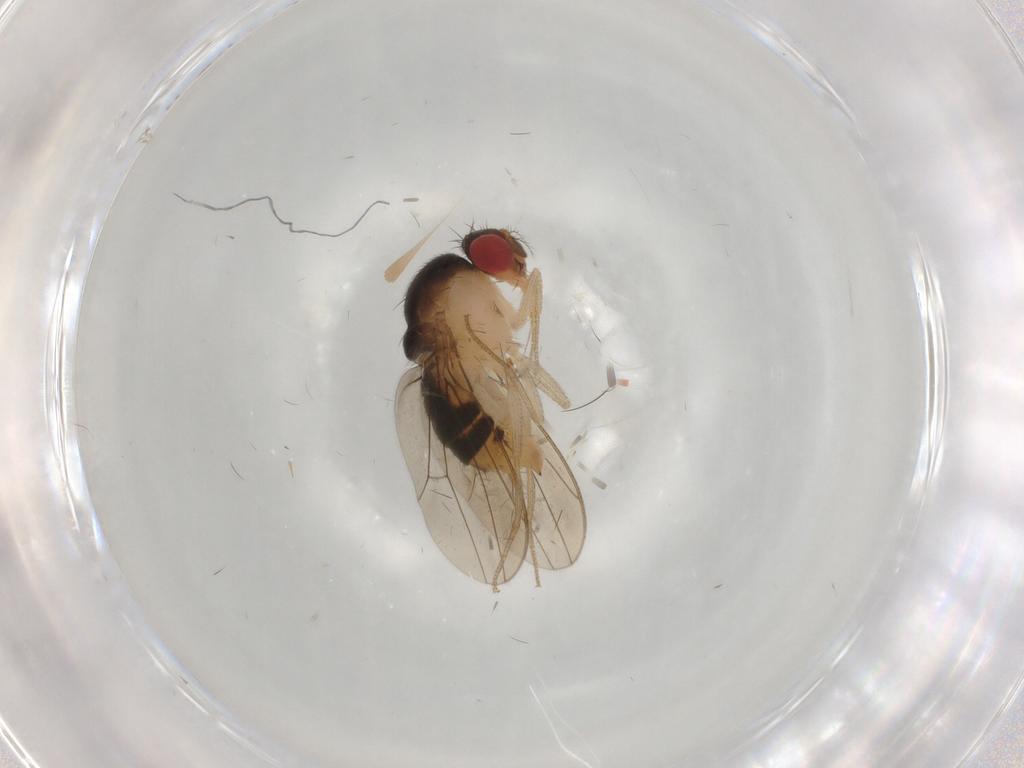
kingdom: Animalia
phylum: Arthropoda
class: Insecta
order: Diptera
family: Drosophilidae
